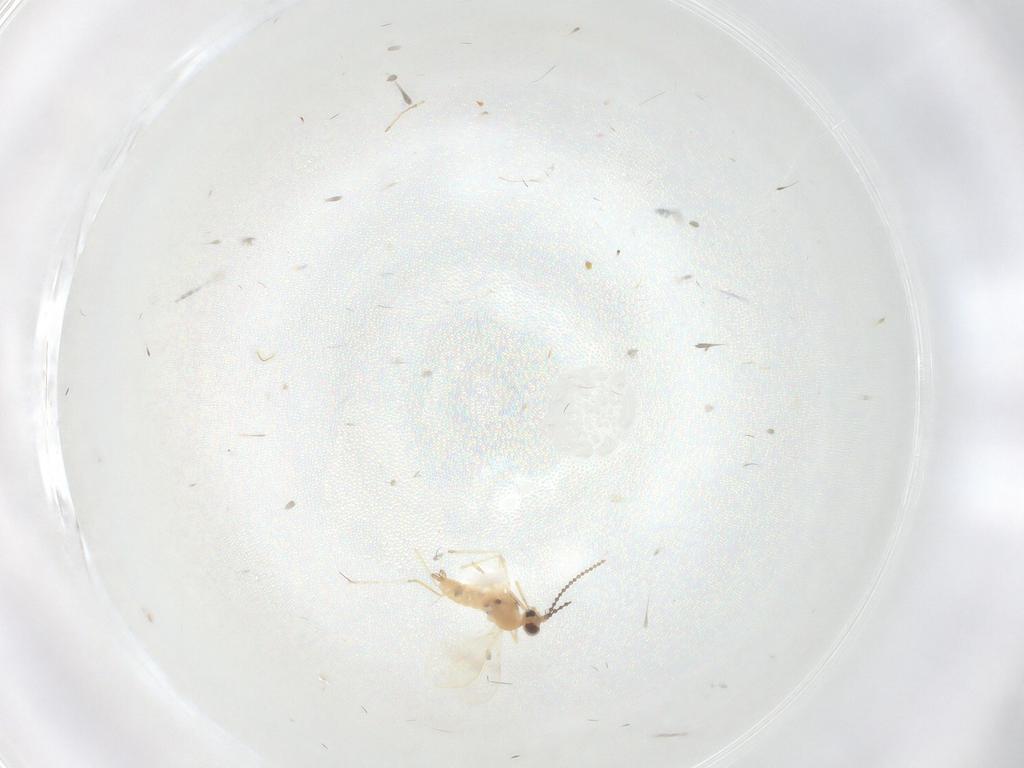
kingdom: Animalia
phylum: Arthropoda
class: Insecta
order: Diptera
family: Cecidomyiidae
